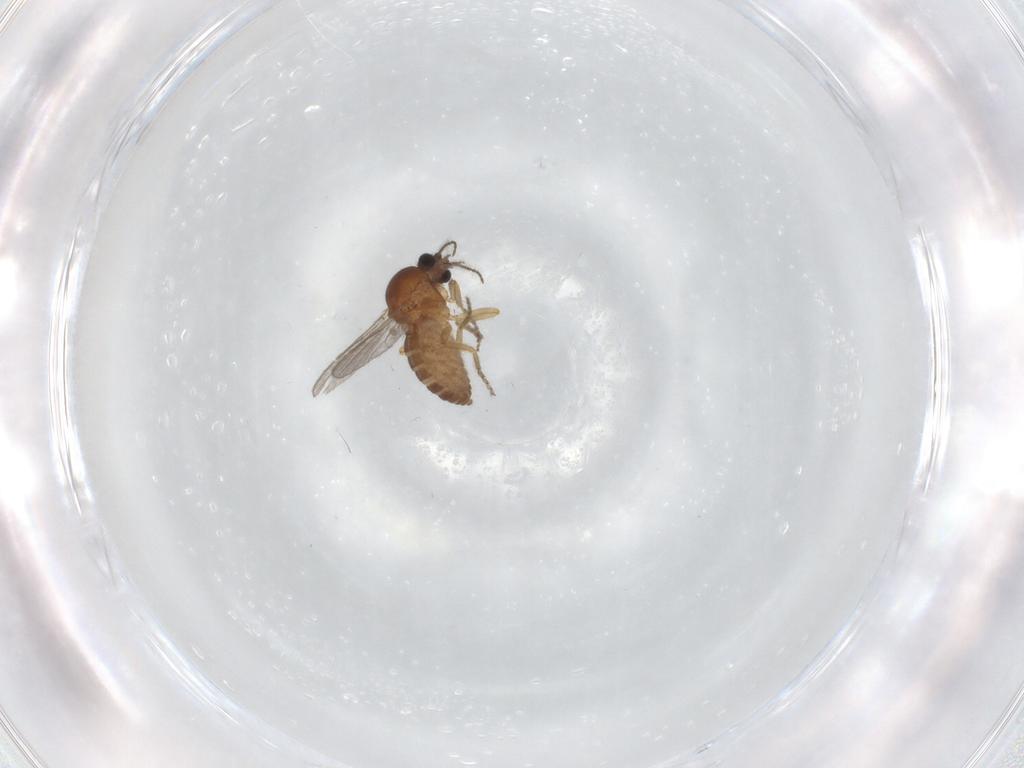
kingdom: Animalia
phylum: Arthropoda
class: Insecta
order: Diptera
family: Ceratopogonidae
